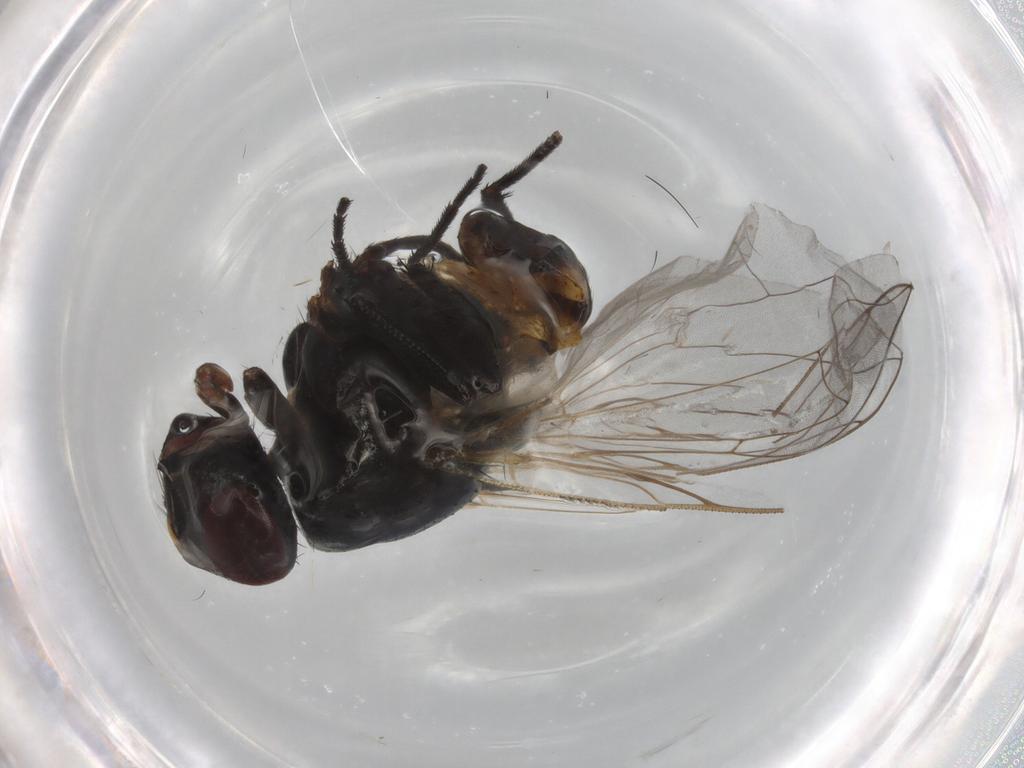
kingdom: Animalia
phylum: Arthropoda
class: Insecta
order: Diptera
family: Muscidae
